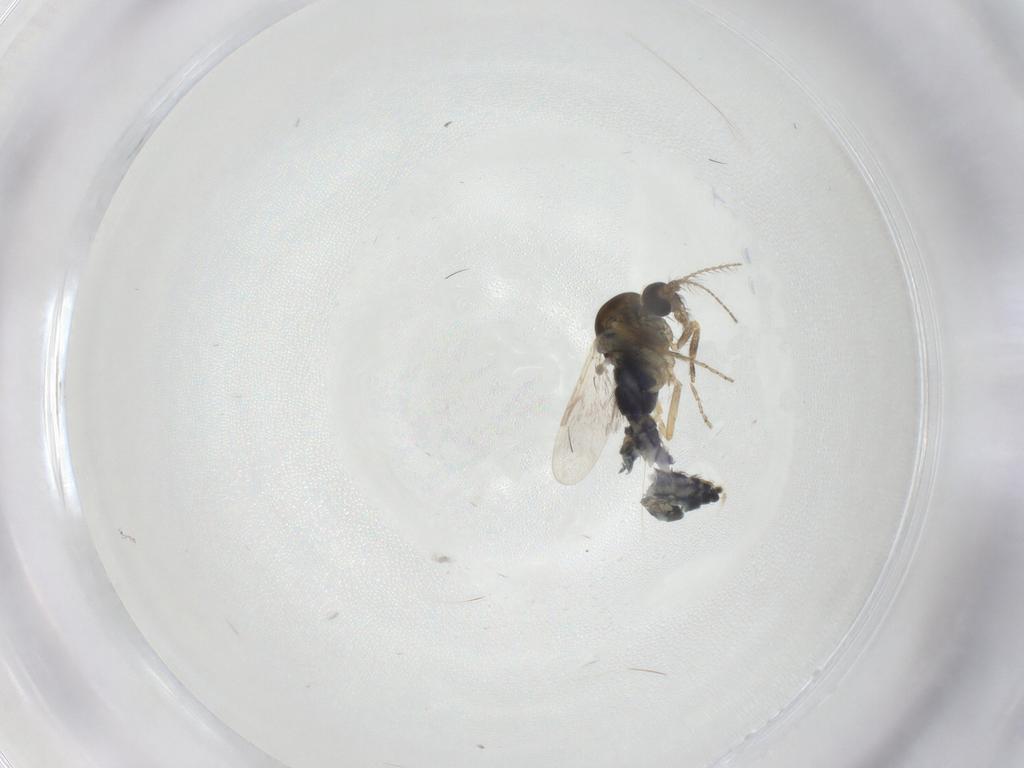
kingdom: Animalia
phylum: Arthropoda
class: Insecta
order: Diptera
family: Ceratopogonidae
